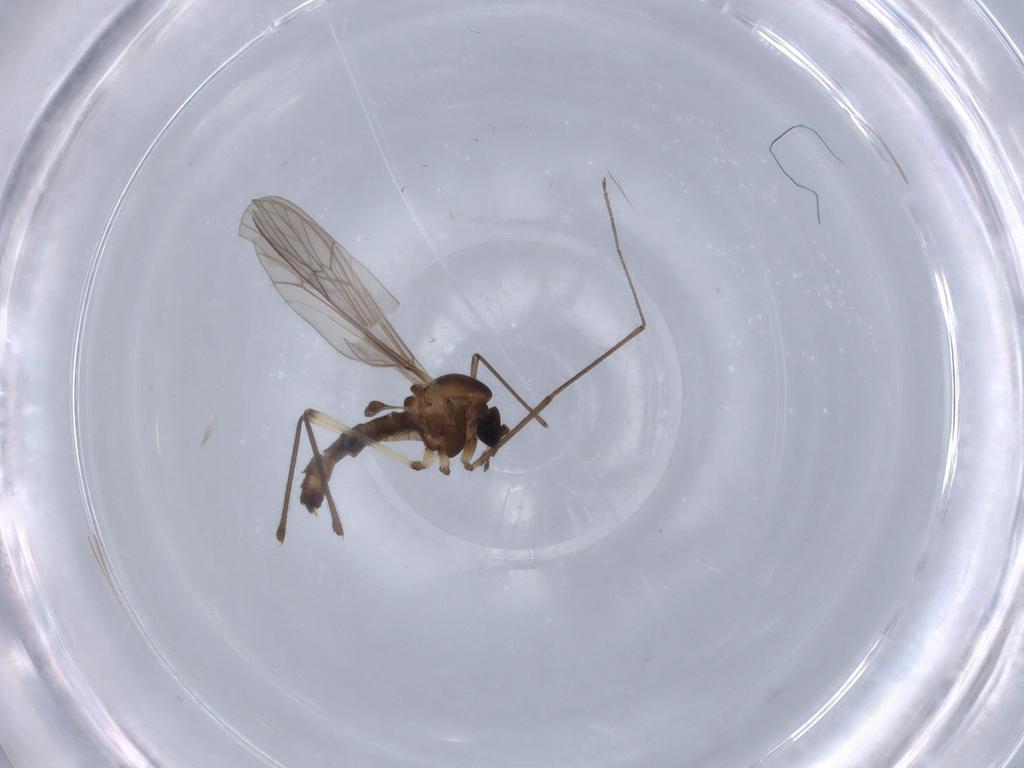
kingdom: Animalia
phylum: Arthropoda
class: Insecta
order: Diptera
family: Dixidae
